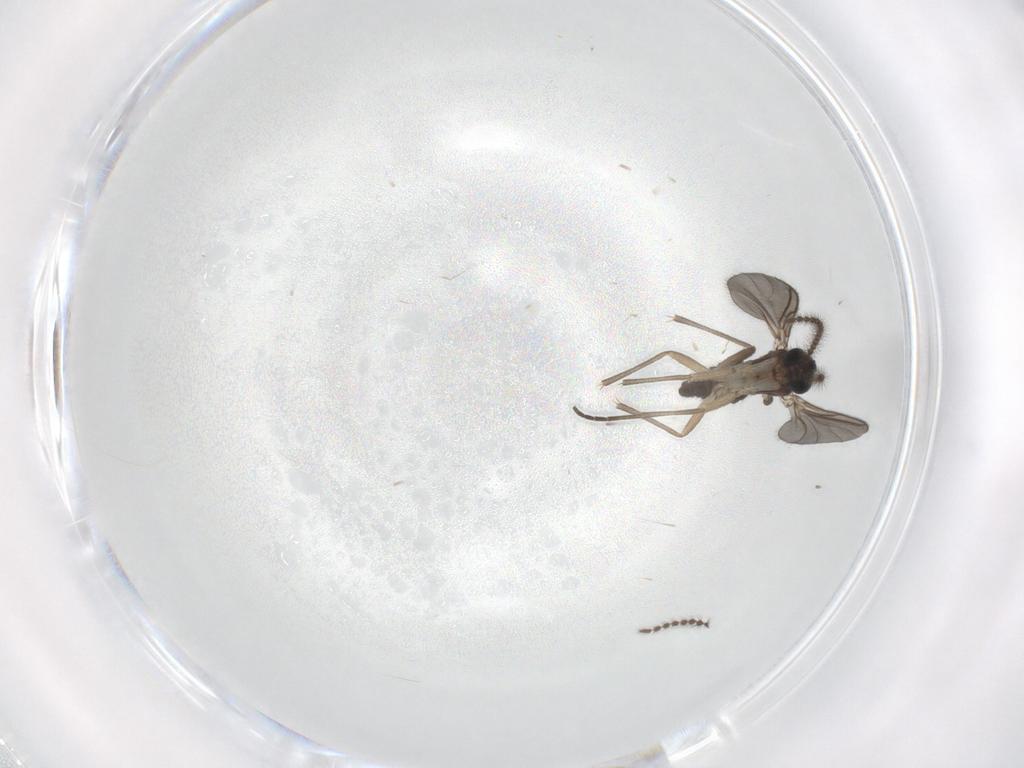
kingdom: Animalia
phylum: Arthropoda
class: Insecta
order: Diptera
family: Sciaridae
